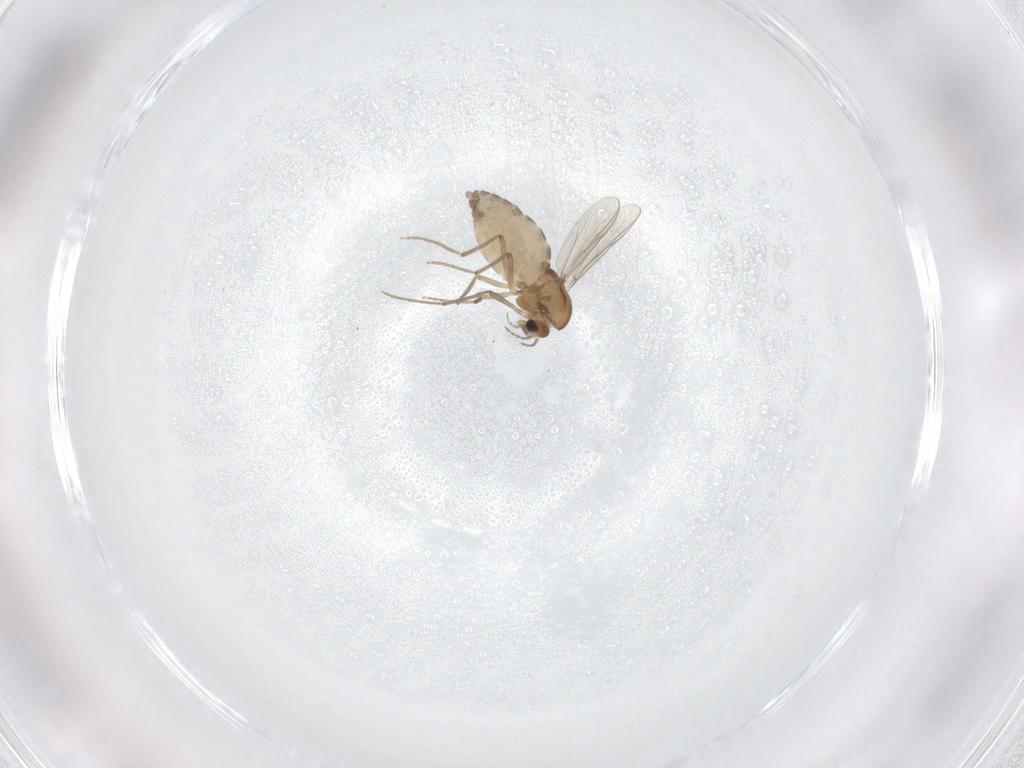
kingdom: Animalia
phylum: Arthropoda
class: Insecta
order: Diptera
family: Chironomidae
